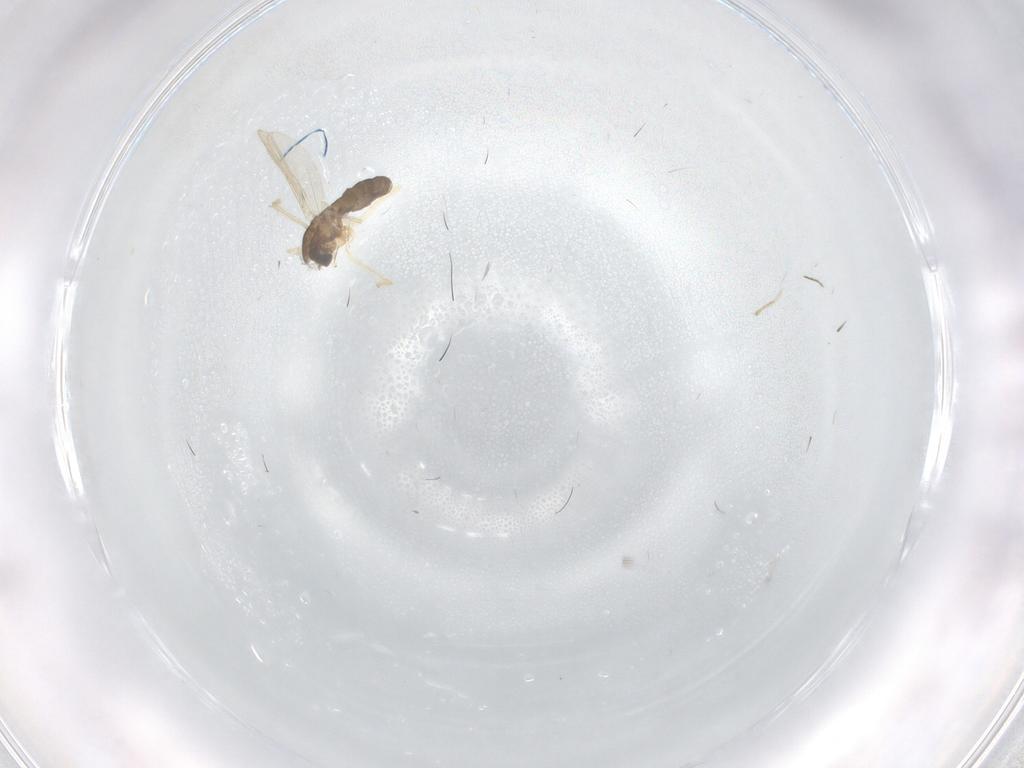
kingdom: Animalia
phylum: Arthropoda
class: Insecta
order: Diptera
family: Chironomidae
